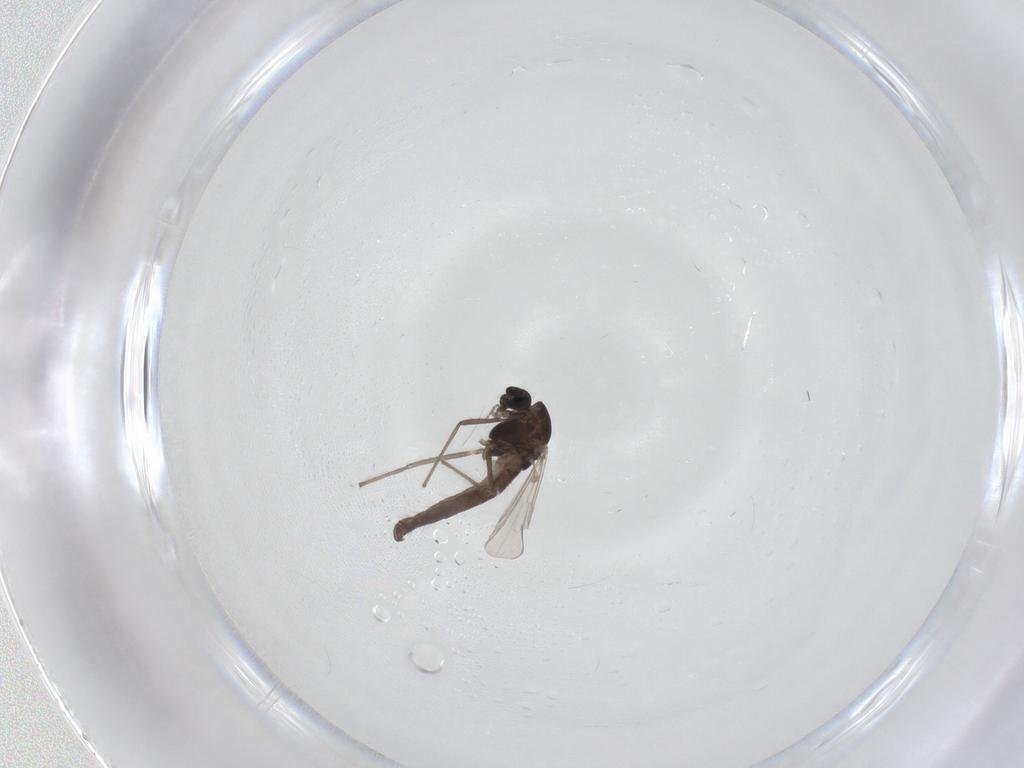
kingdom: Animalia
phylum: Arthropoda
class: Insecta
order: Diptera
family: Chironomidae
